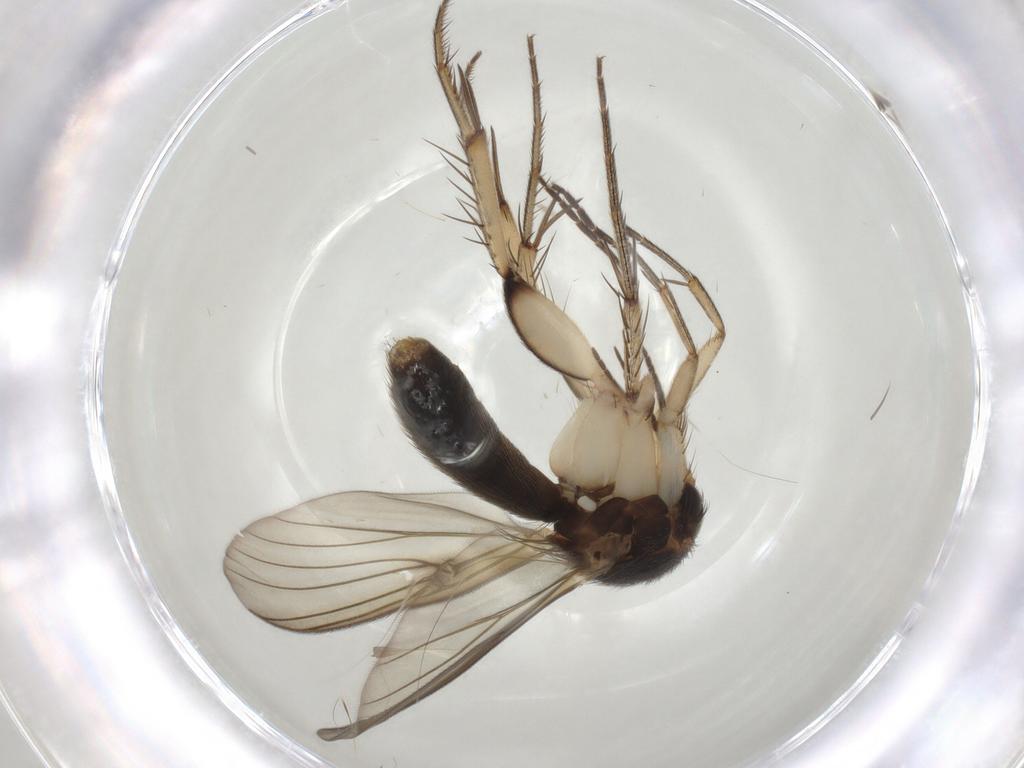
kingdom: Animalia
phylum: Arthropoda
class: Insecta
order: Diptera
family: Mycetophilidae
